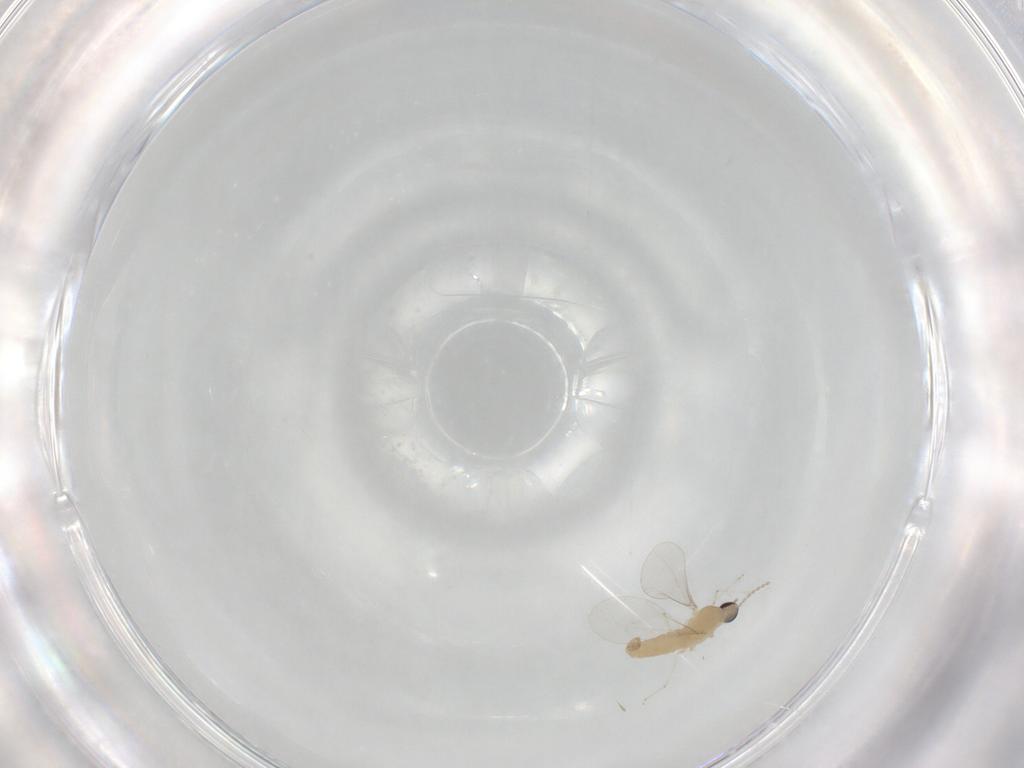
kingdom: Animalia
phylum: Arthropoda
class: Insecta
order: Diptera
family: Cecidomyiidae
